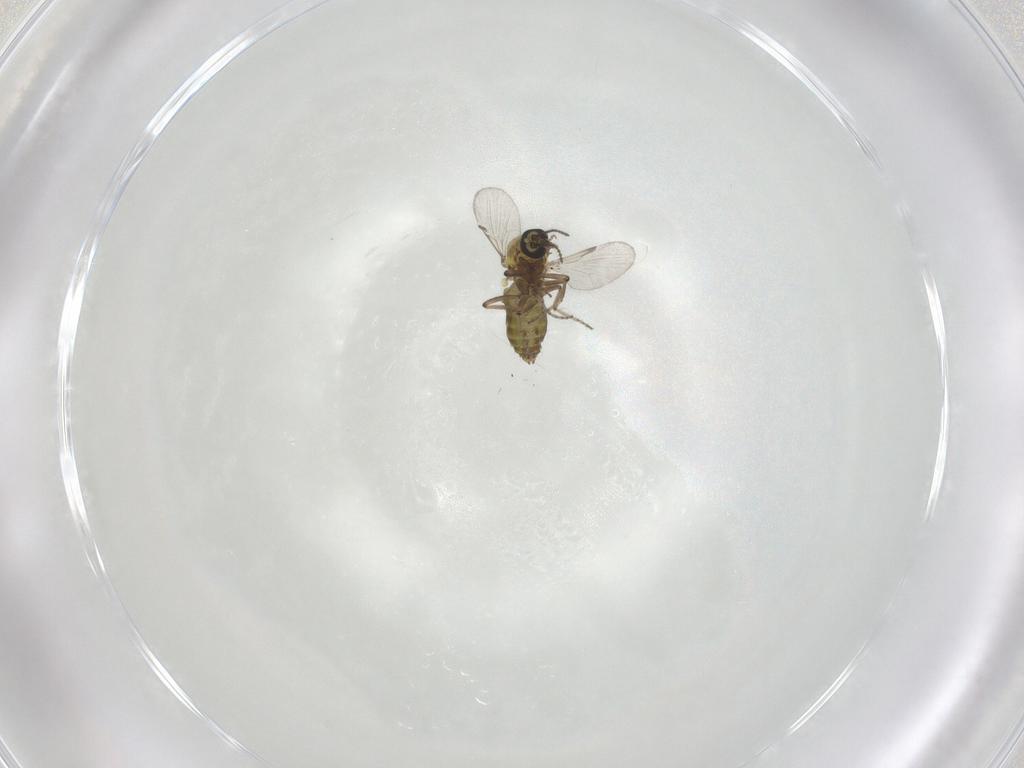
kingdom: Animalia
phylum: Arthropoda
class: Insecta
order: Diptera
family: Ceratopogonidae
